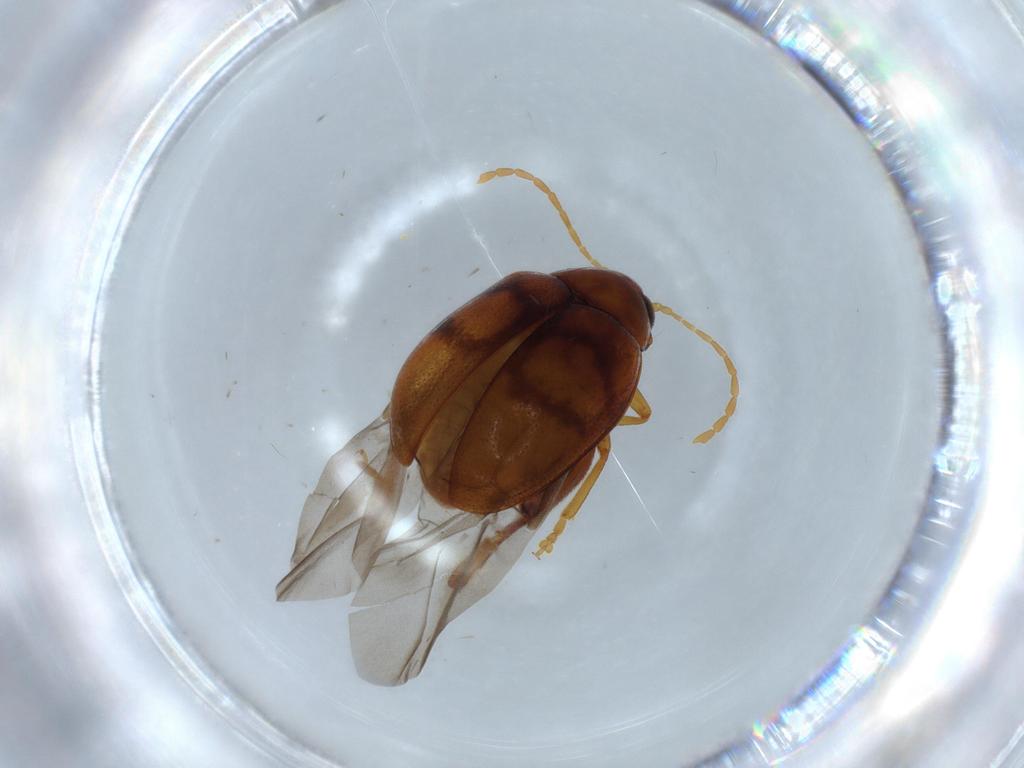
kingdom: Animalia
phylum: Arthropoda
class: Insecta
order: Coleoptera
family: Chrysomelidae
